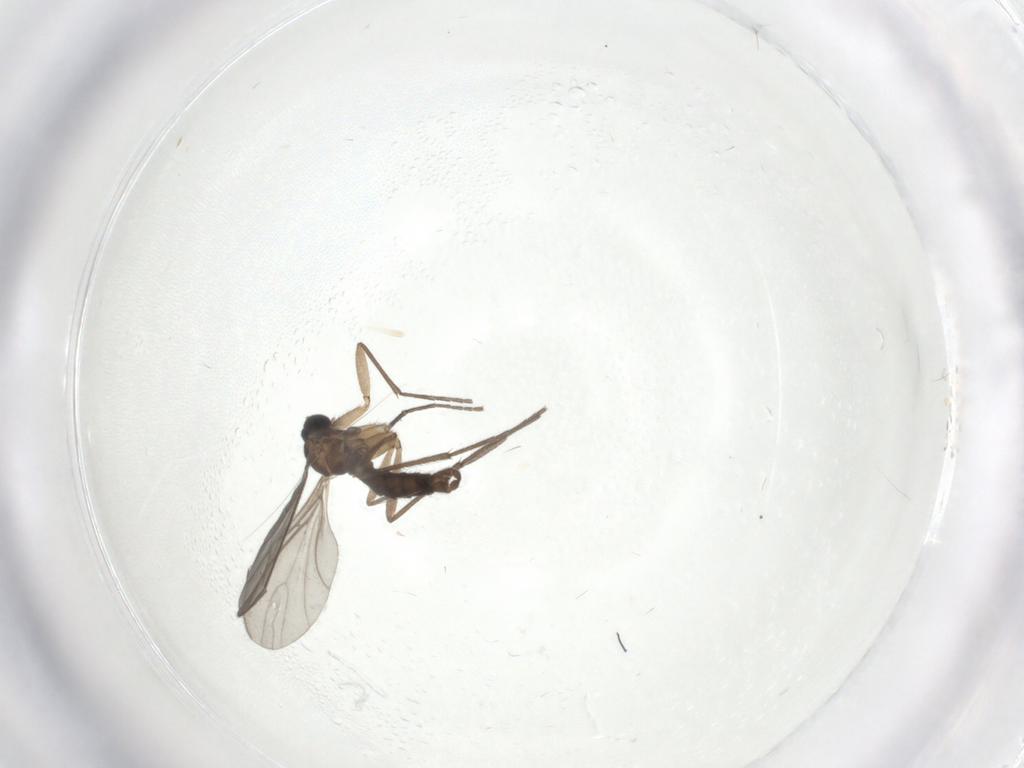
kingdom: Animalia
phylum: Arthropoda
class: Insecta
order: Diptera
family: Sciaridae
